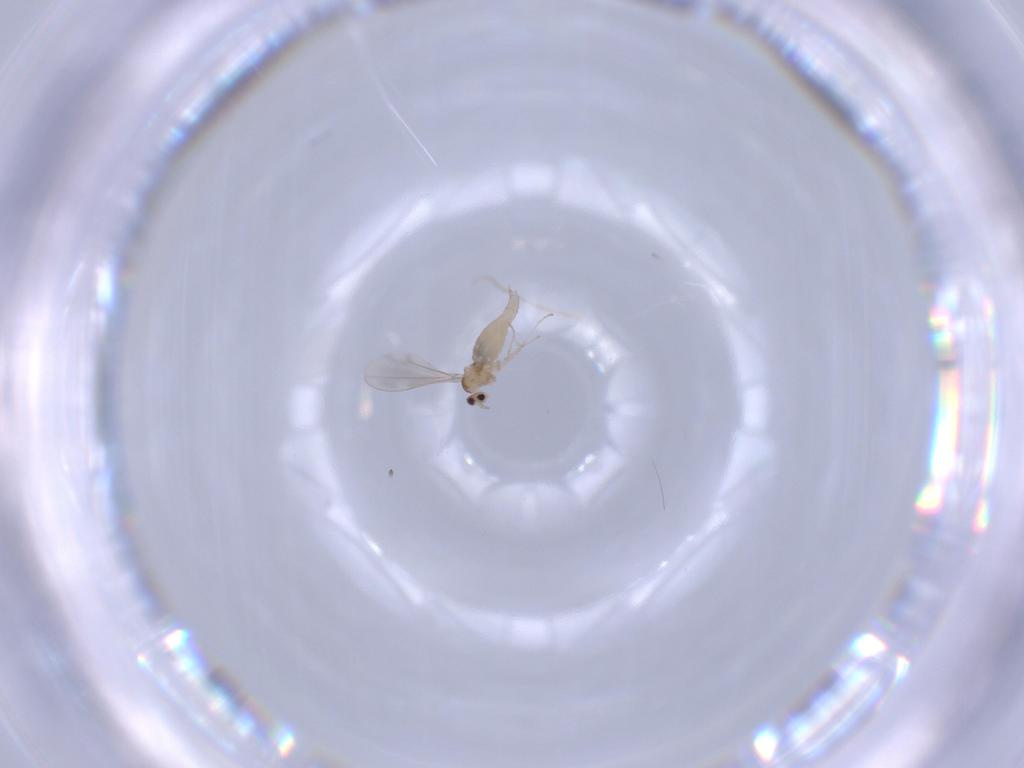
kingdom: Animalia
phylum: Arthropoda
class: Insecta
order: Diptera
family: Cecidomyiidae
